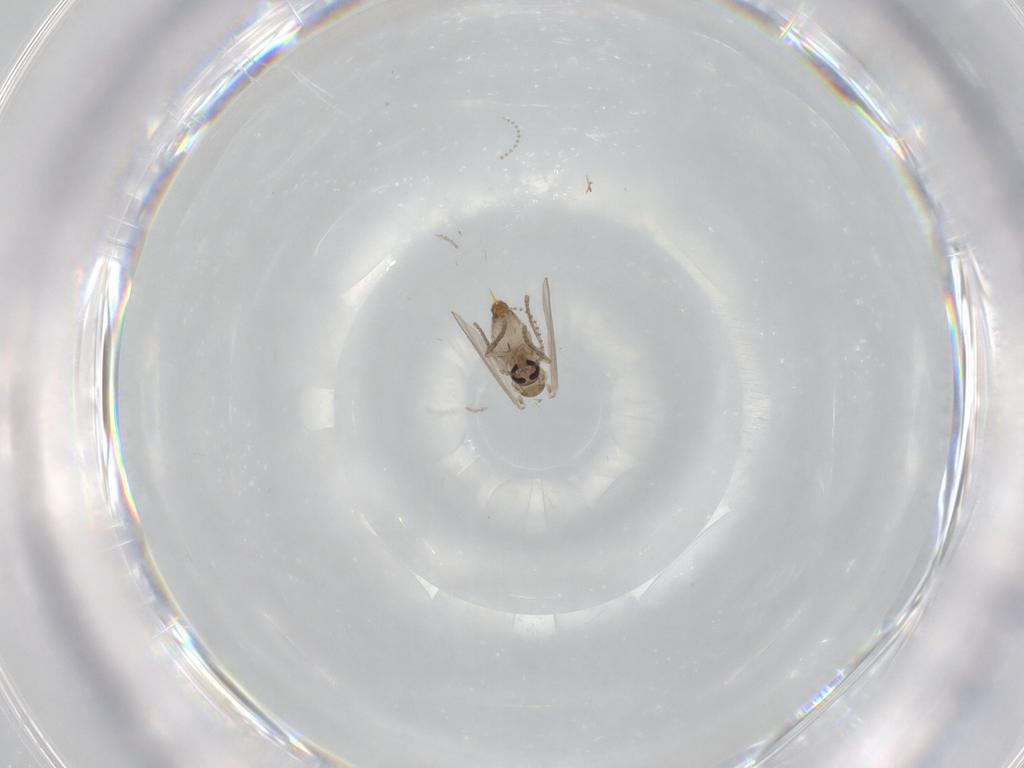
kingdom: Animalia
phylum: Arthropoda
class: Insecta
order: Diptera
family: Psychodidae
